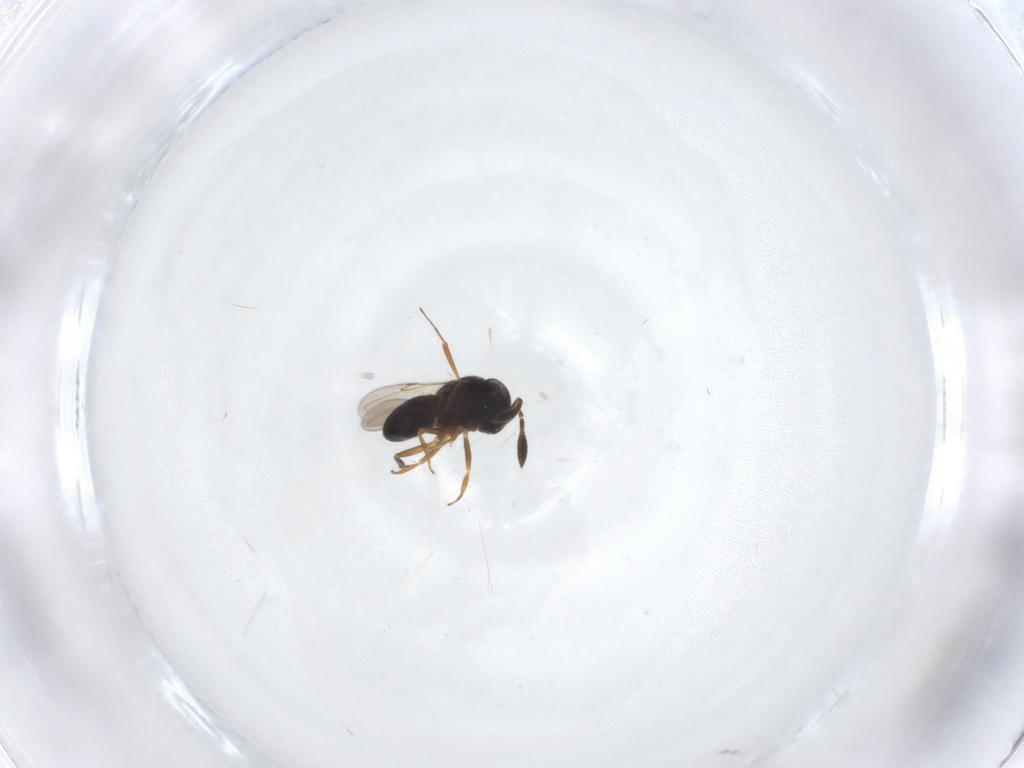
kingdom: Animalia
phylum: Arthropoda
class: Insecta
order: Hymenoptera
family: Scelionidae
